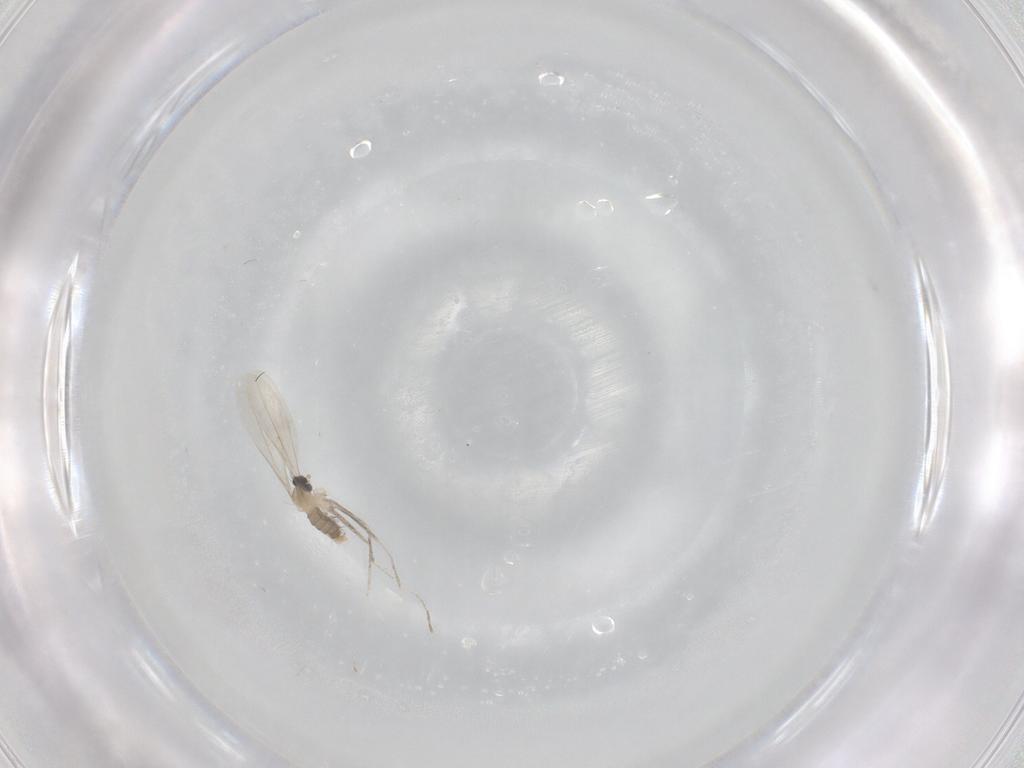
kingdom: Animalia
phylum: Arthropoda
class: Insecta
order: Diptera
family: Cecidomyiidae
